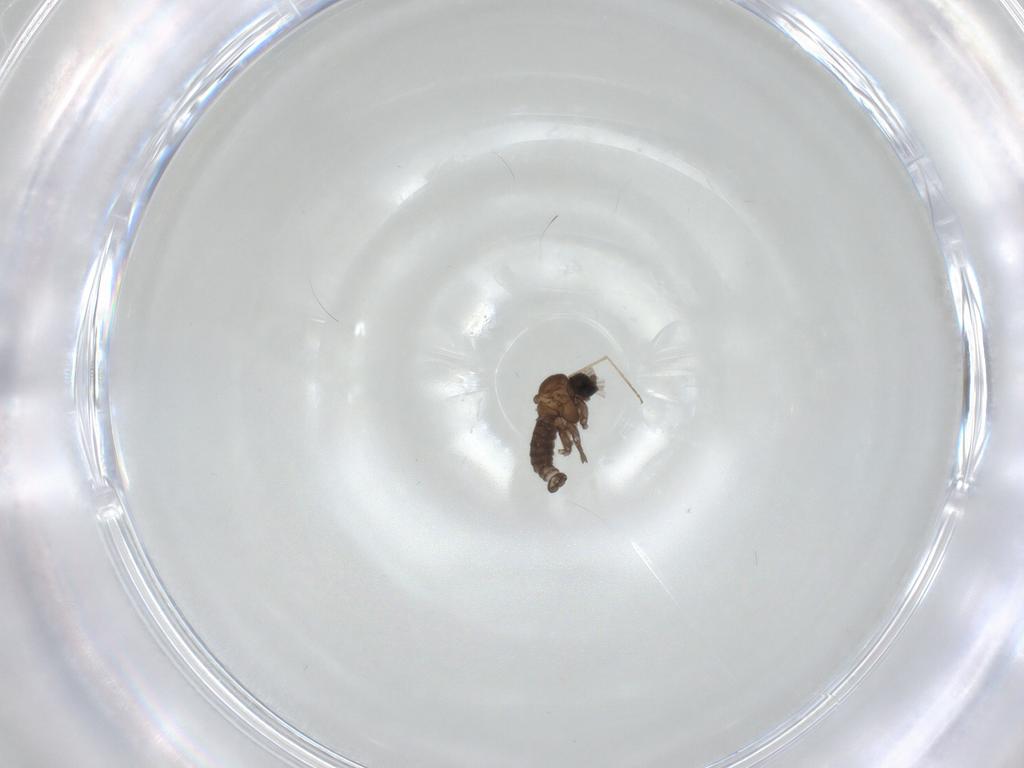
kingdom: Animalia
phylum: Arthropoda
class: Insecta
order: Diptera
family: Sciaridae
